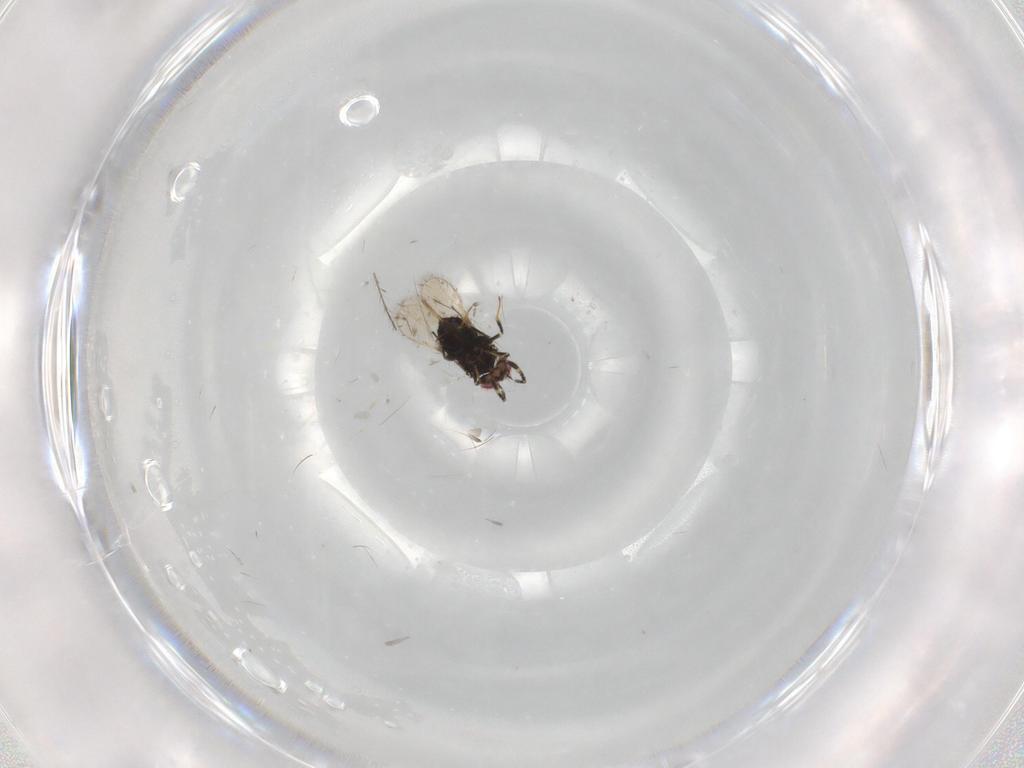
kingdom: Animalia
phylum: Arthropoda
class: Insecta
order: Hymenoptera
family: Azotidae
